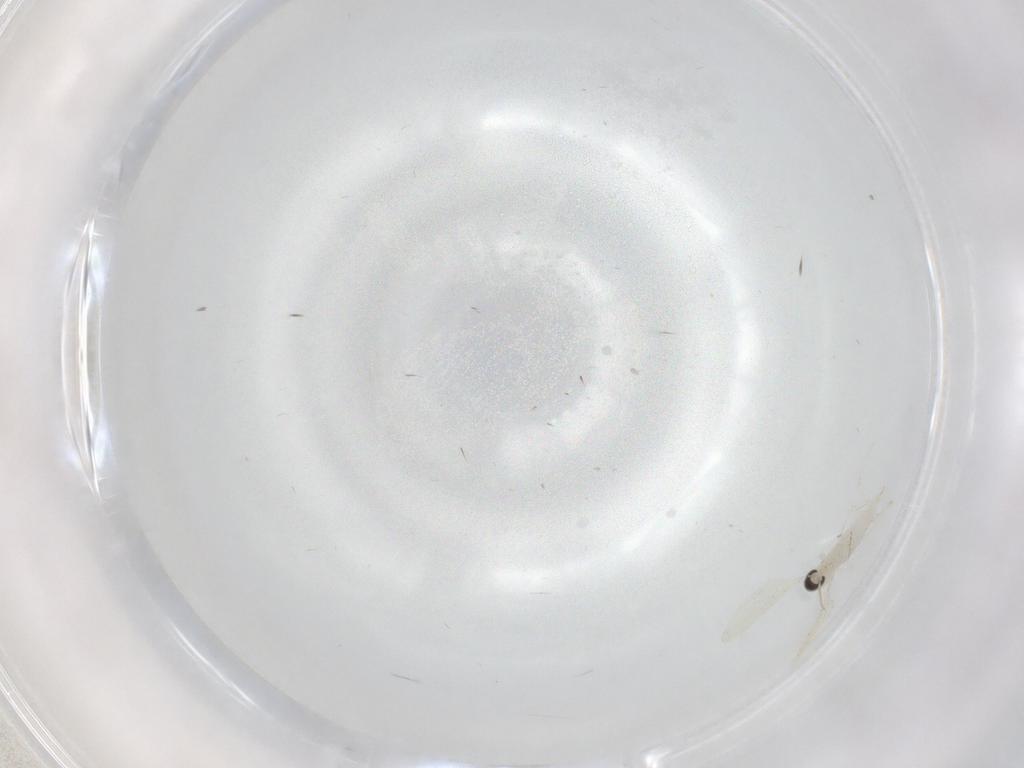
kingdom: Animalia
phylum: Arthropoda
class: Insecta
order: Diptera
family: Cecidomyiidae
